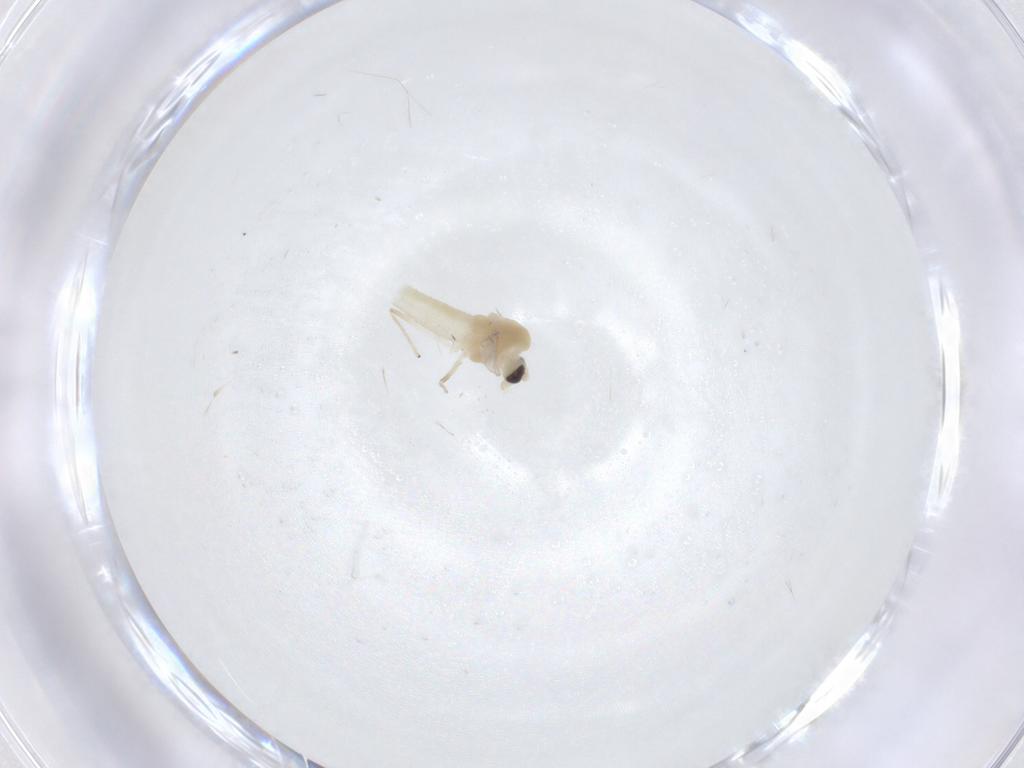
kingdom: Animalia
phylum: Arthropoda
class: Insecta
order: Diptera
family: Chironomidae
